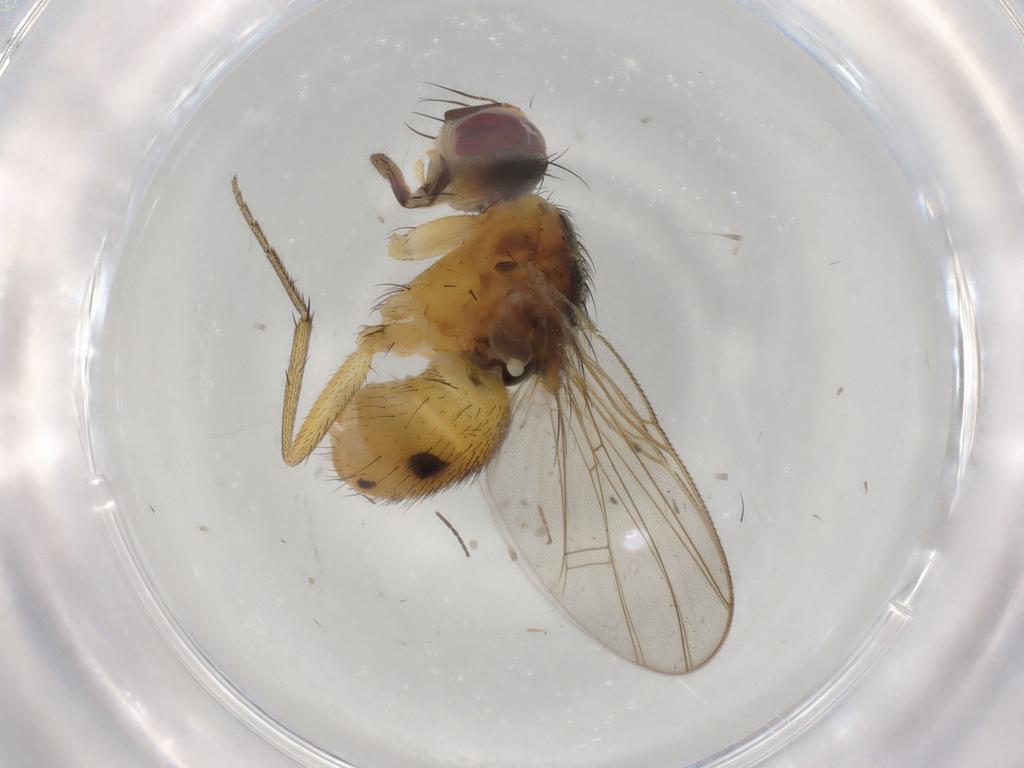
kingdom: Animalia
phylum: Arthropoda
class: Insecta
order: Diptera
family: Muscidae
